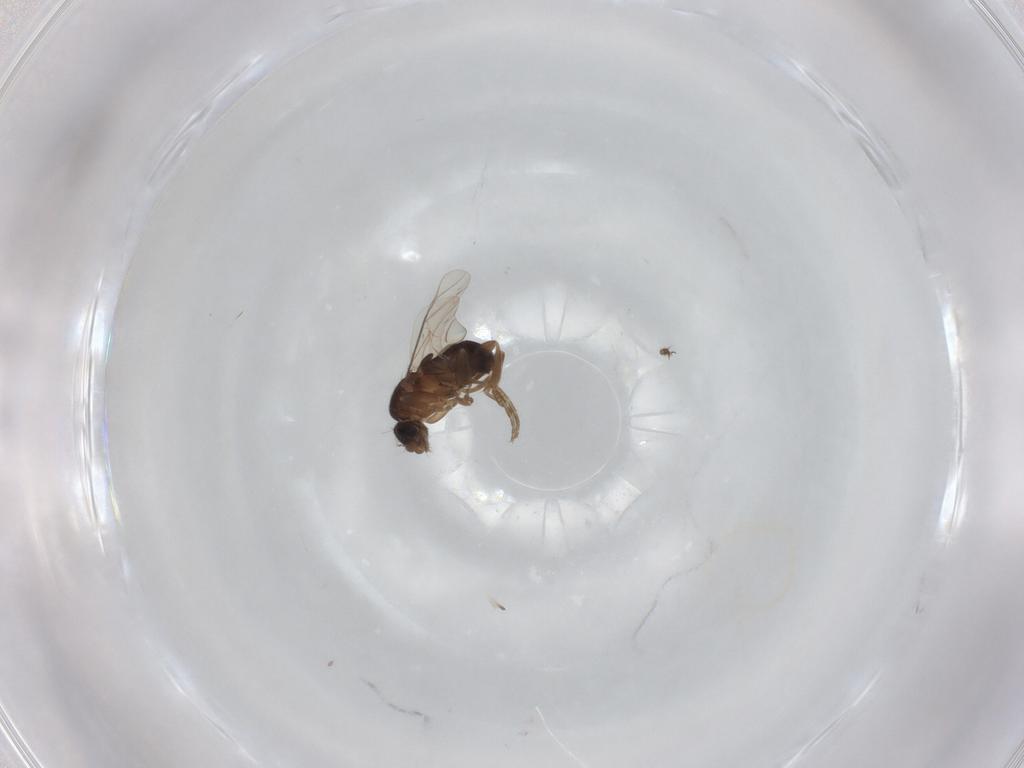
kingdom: Animalia
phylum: Arthropoda
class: Insecta
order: Diptera
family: Phoridae
